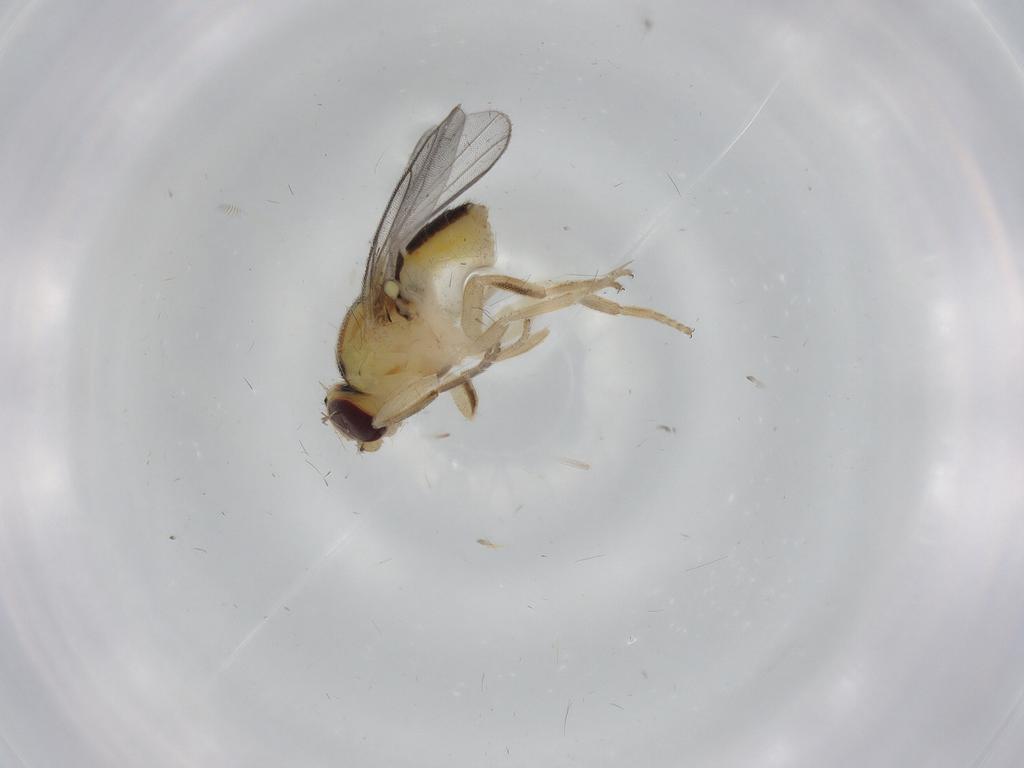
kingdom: Animalia
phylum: Arthropoda
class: Insecta
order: Diptera
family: Chloropidae
